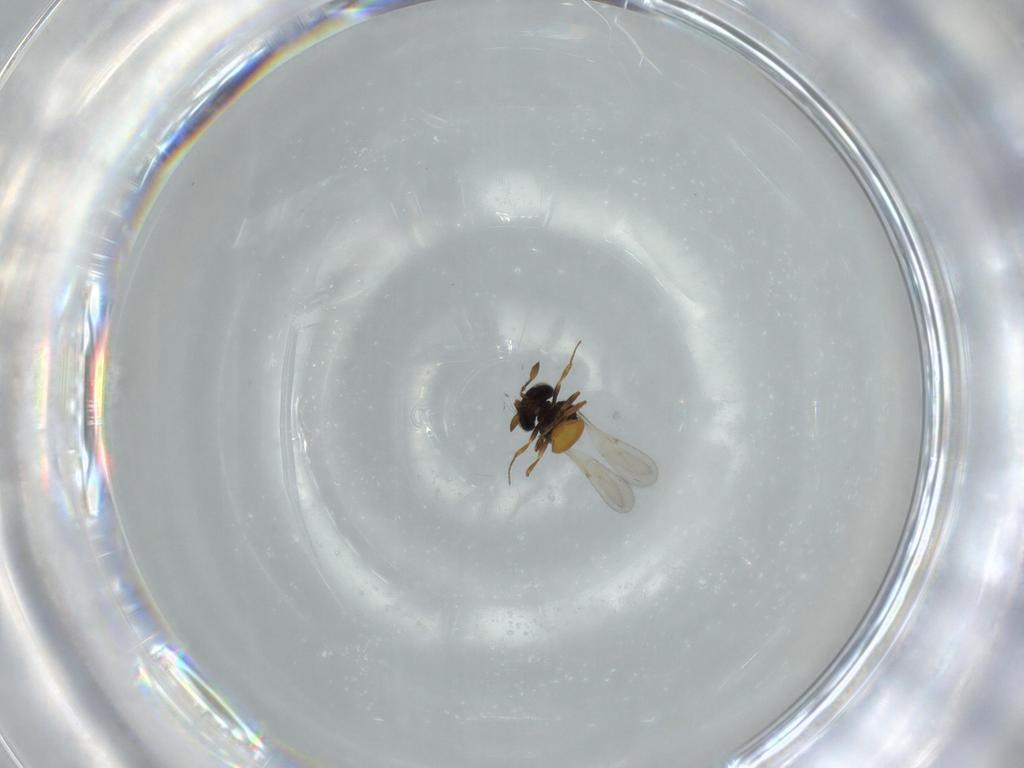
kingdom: Animalia
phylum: Arthropoda
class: Insecta
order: Hymenoptera
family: Scelionidae
